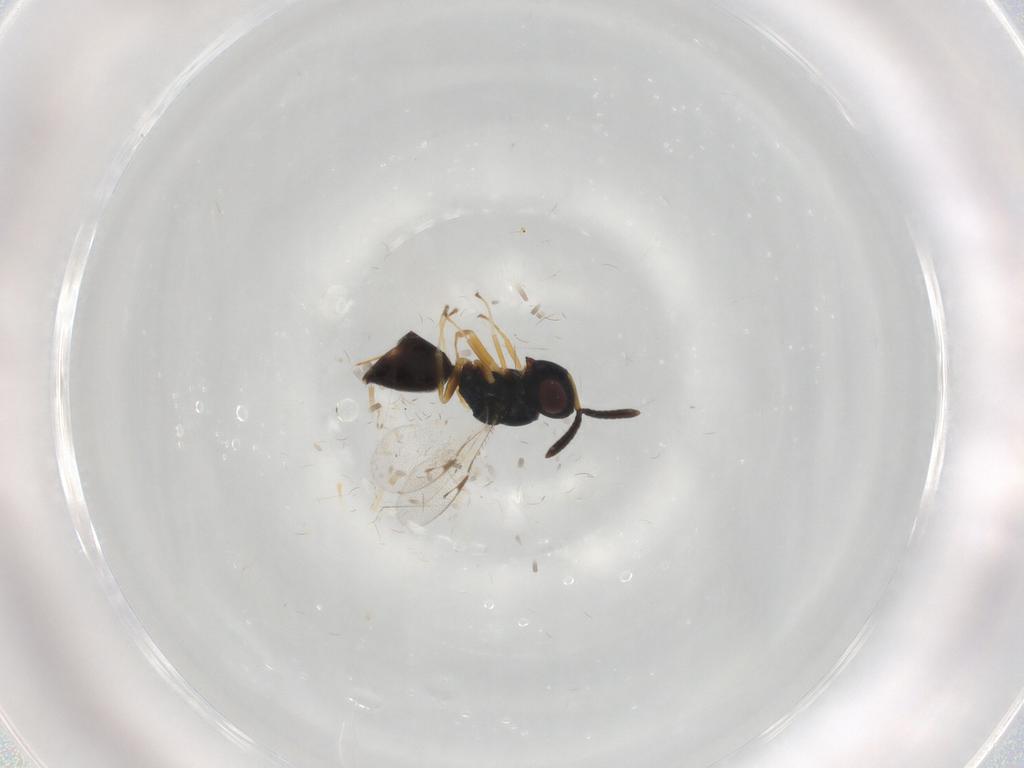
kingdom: Animalia
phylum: Arthropoda
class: Insecta
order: Hymenoptera
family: Pteromalidae
